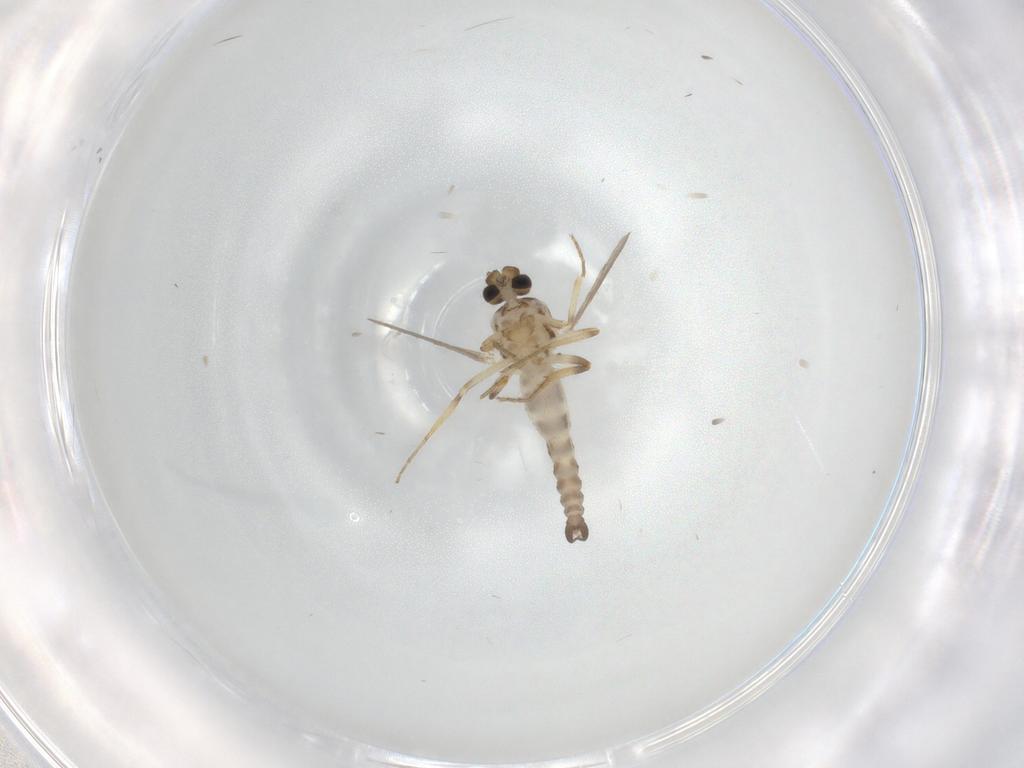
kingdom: Animalia
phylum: Arthropoda
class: Insecta
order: Diptera
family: Ceratopogonidae
